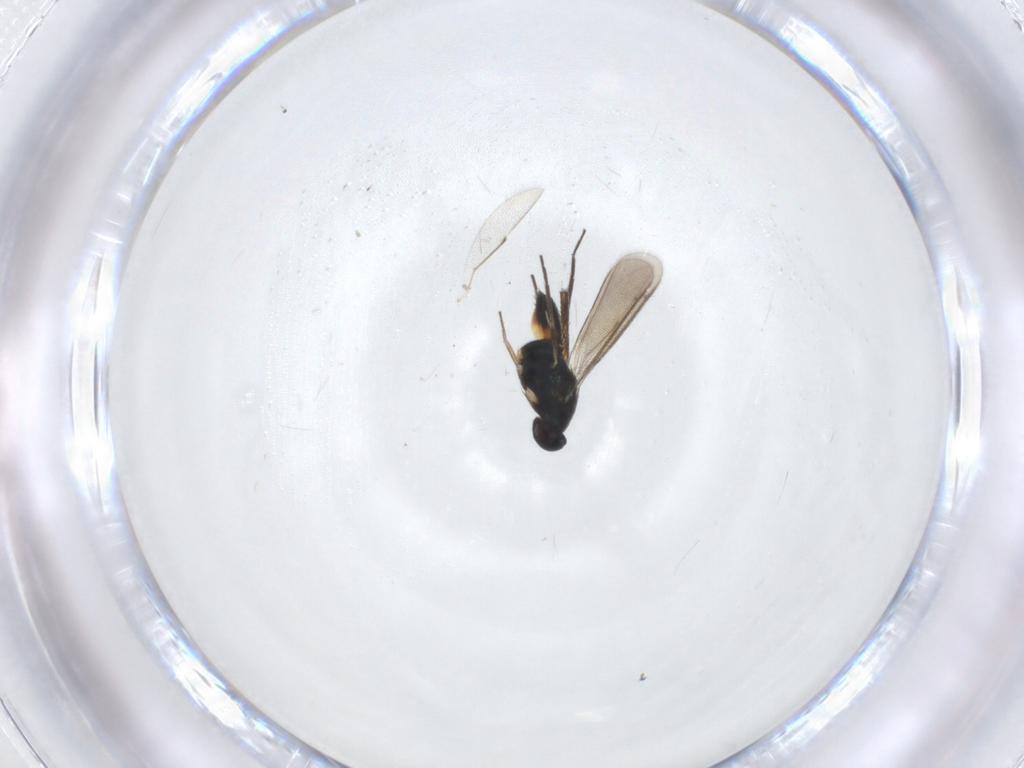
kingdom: Animalia
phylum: Arthropoda
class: Insecta
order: Hymenoptera
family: Eulophidae
